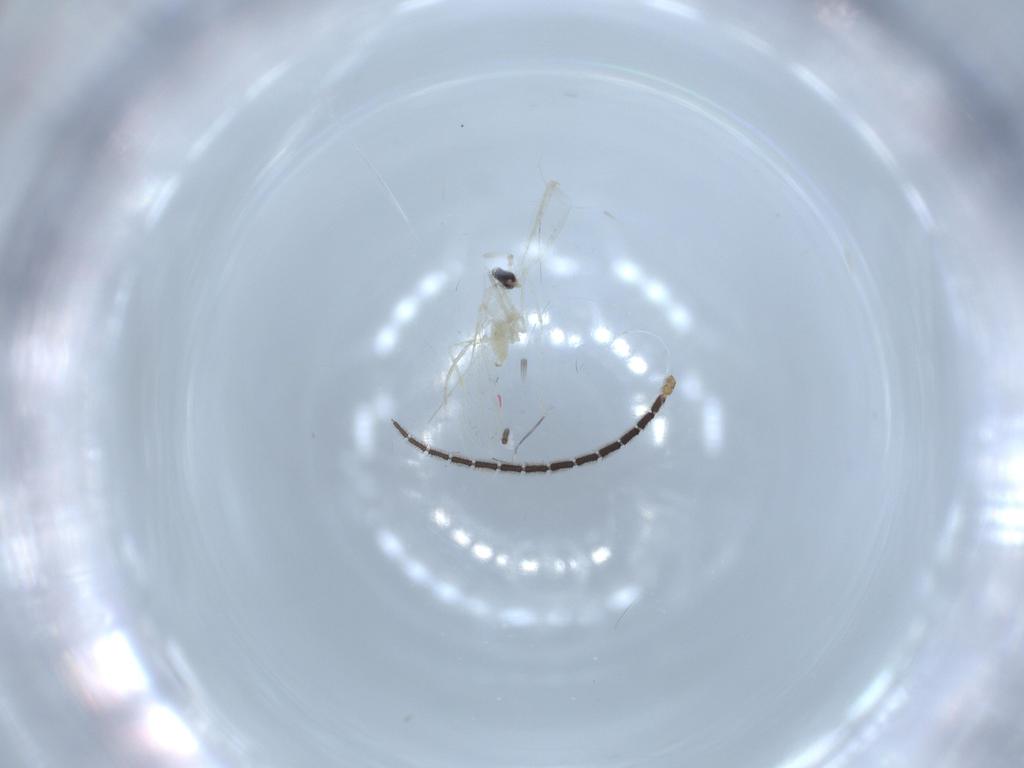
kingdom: Animalia
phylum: Arthropoda
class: Insecta
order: Diptera
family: Cecidomyiidae
